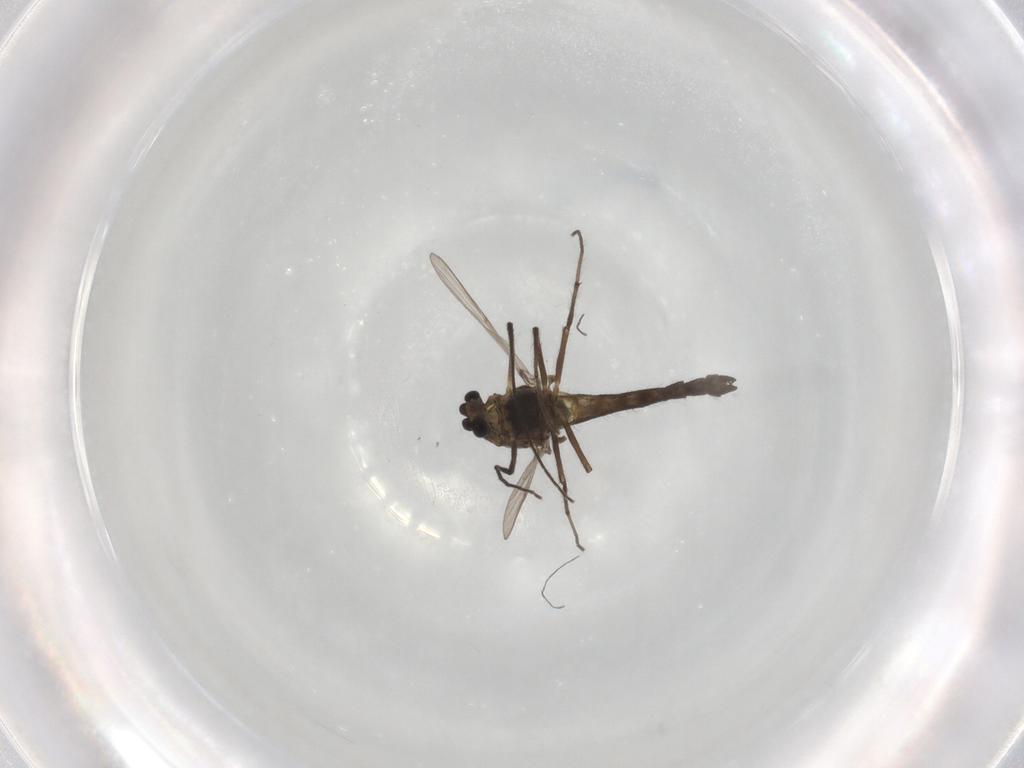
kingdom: Animalia
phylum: Arthropoda
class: Insecta
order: Diptera
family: Chironomidae
